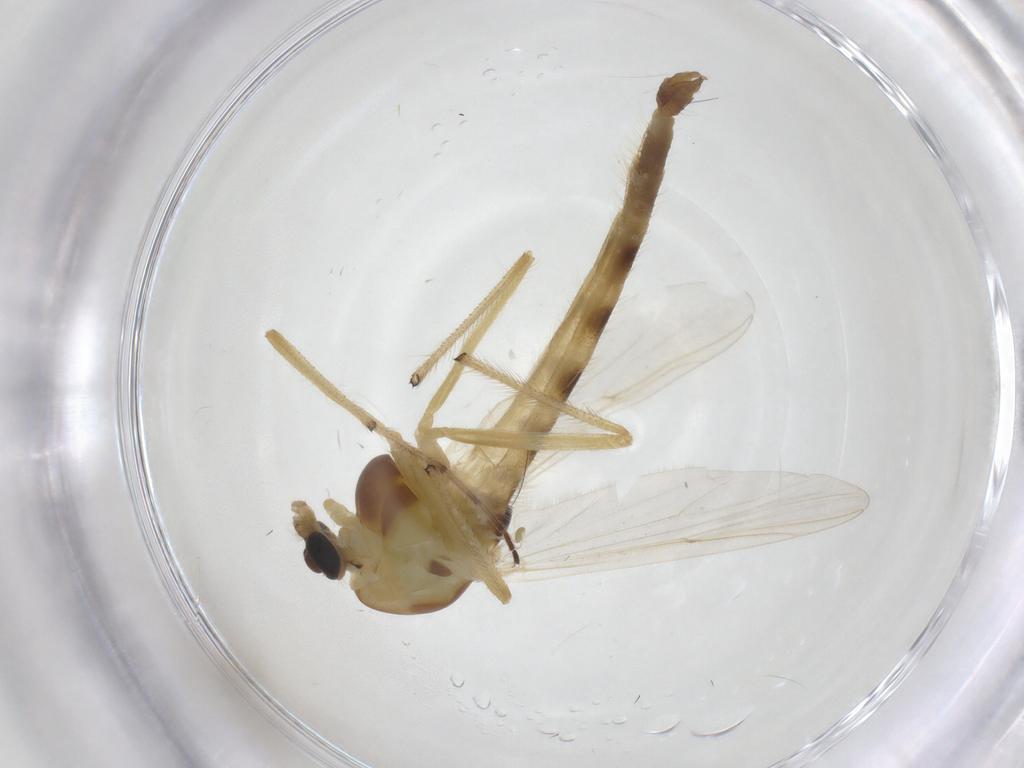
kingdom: Animalia
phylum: Arthropoda
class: Insecta
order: Diptera
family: Chironomidae
